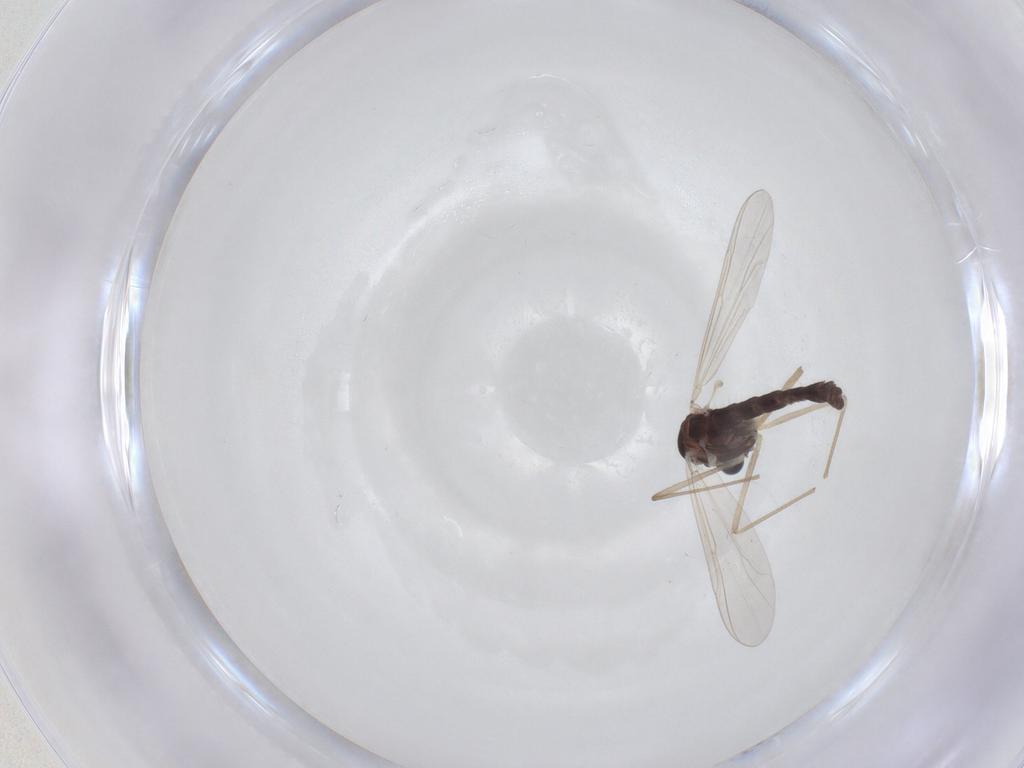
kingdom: Animalia
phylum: Arthropoda
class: Insecta
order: Diptera
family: Chironomidae
